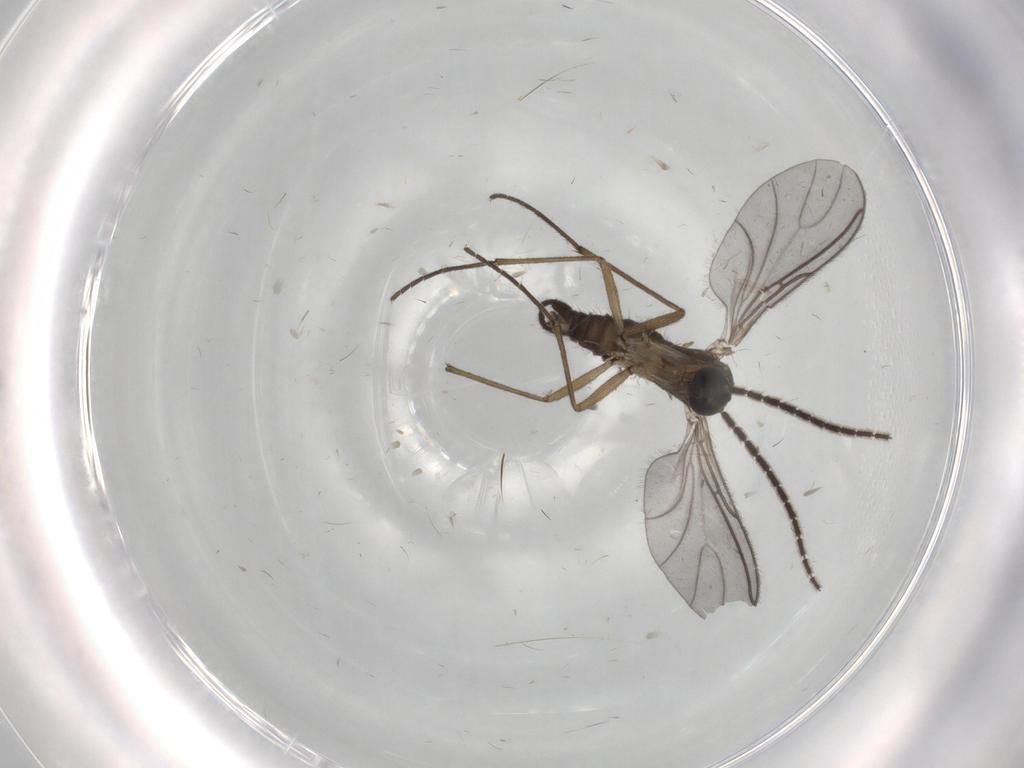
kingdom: Animalia
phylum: Arthropoda
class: Insecta
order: Diptera
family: Sciaridae
